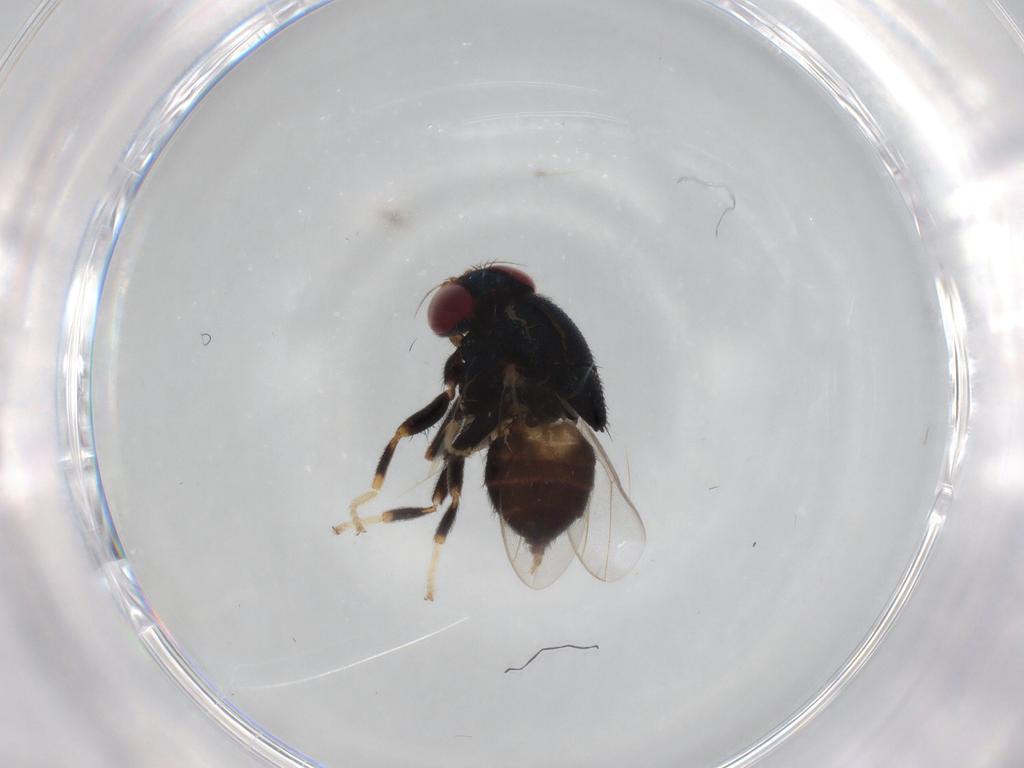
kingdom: Animalia
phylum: Arthropoda
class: Insecta
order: Diptera
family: Chloropidae
